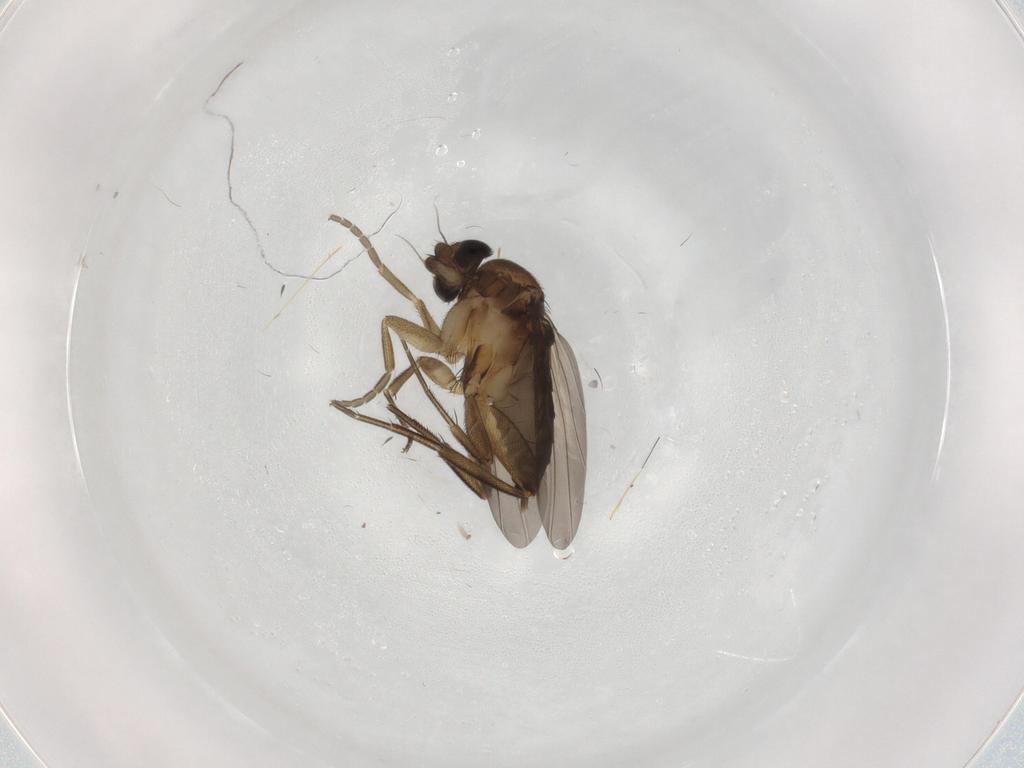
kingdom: Animalia
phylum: Arthropoda
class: Insecta
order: Diptera
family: Phoridae
